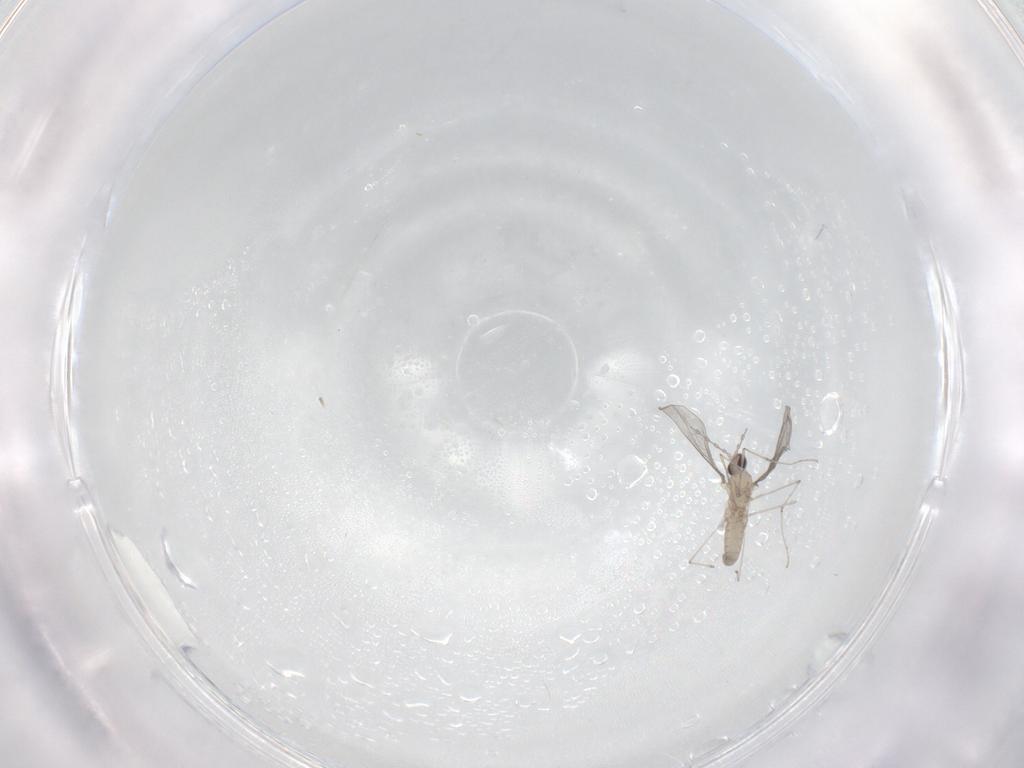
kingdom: Animalia
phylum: Arthropoda
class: Insecta
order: Diptera
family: Cecidomyiidae
